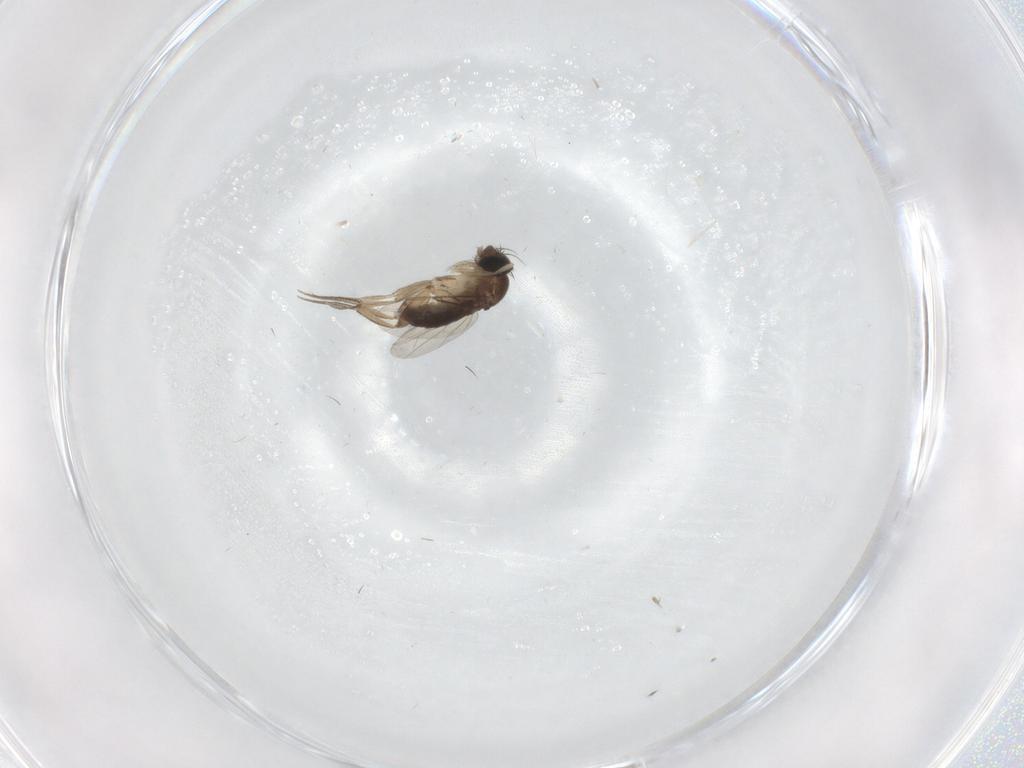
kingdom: Animalia
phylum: Arthropoda
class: Insecta
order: Diptera
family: Phoridae
